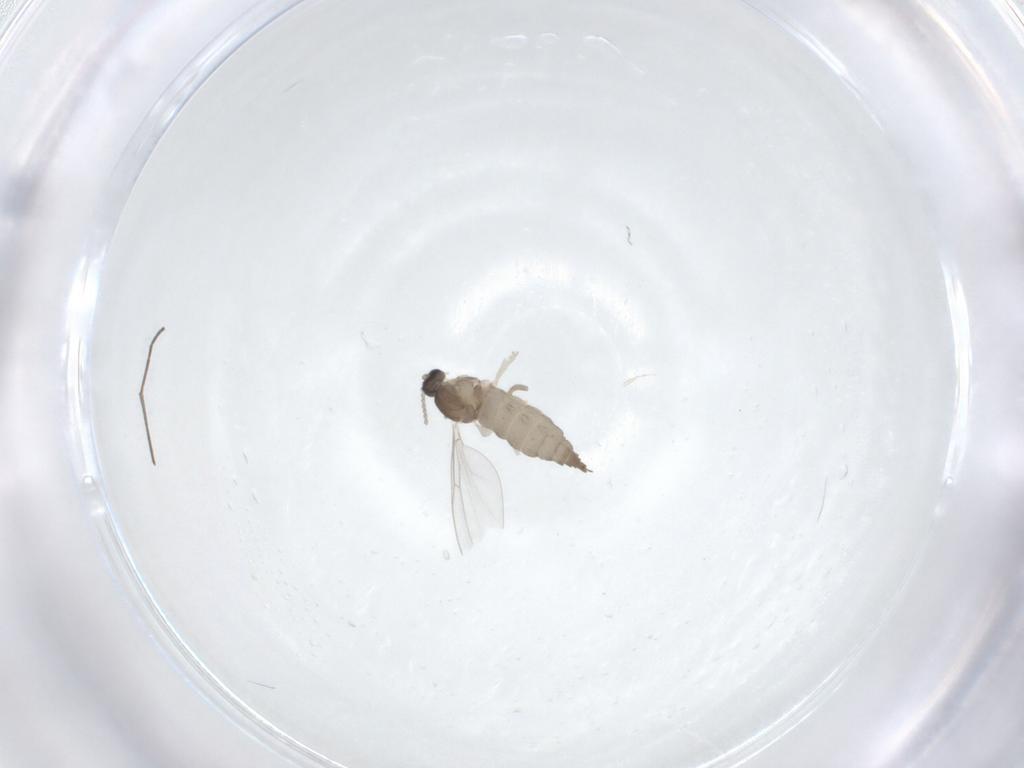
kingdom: Animalia
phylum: Arthropoda
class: Insecta
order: Diptera
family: Cecidomyiidae
